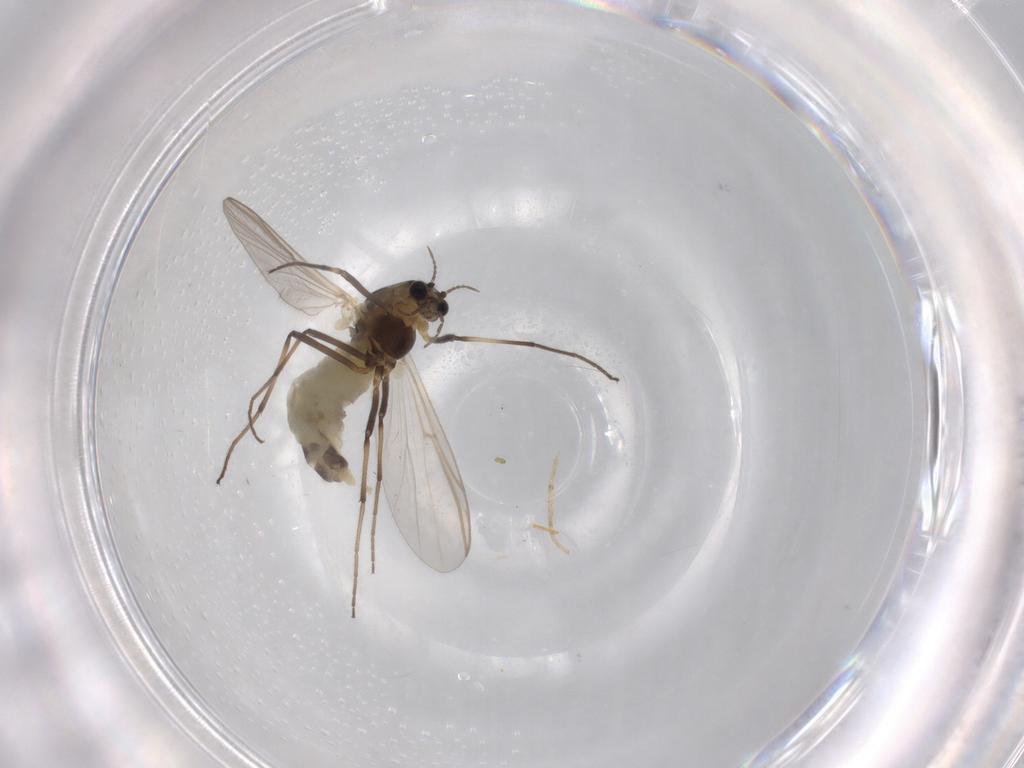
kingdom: Animalia
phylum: Arthropoda
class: Insecta
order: Diptera
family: Chironomidae
